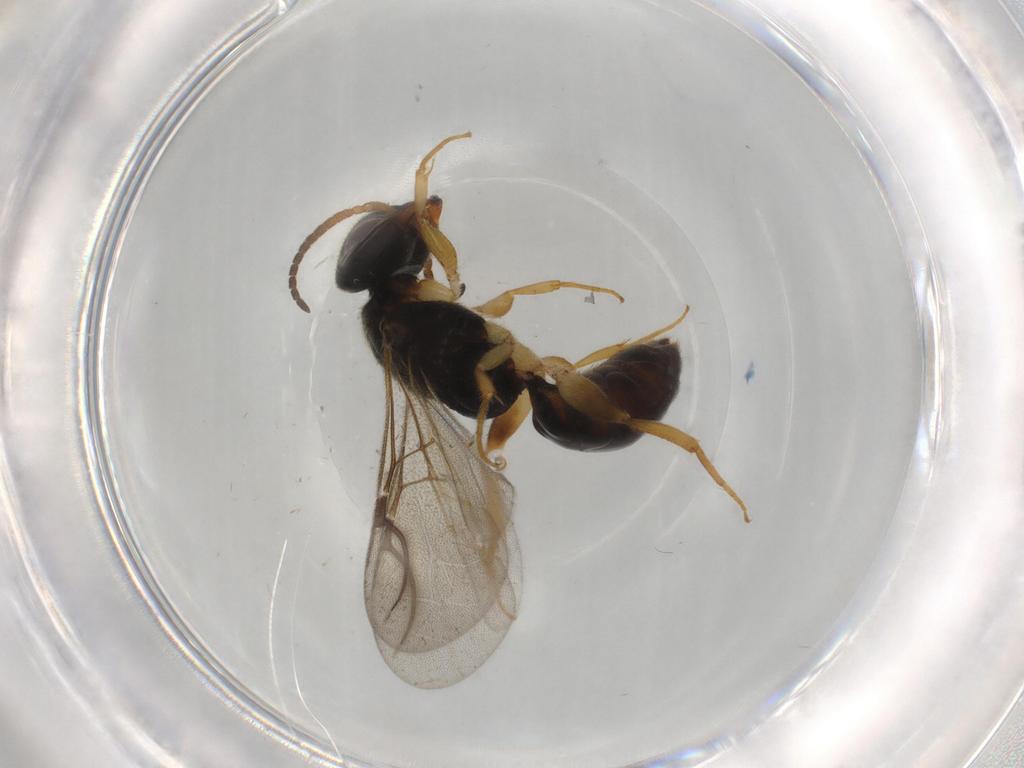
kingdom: Animalia
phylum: Arthropoda
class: Insecta
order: Hymenoptera
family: Bethylidae
